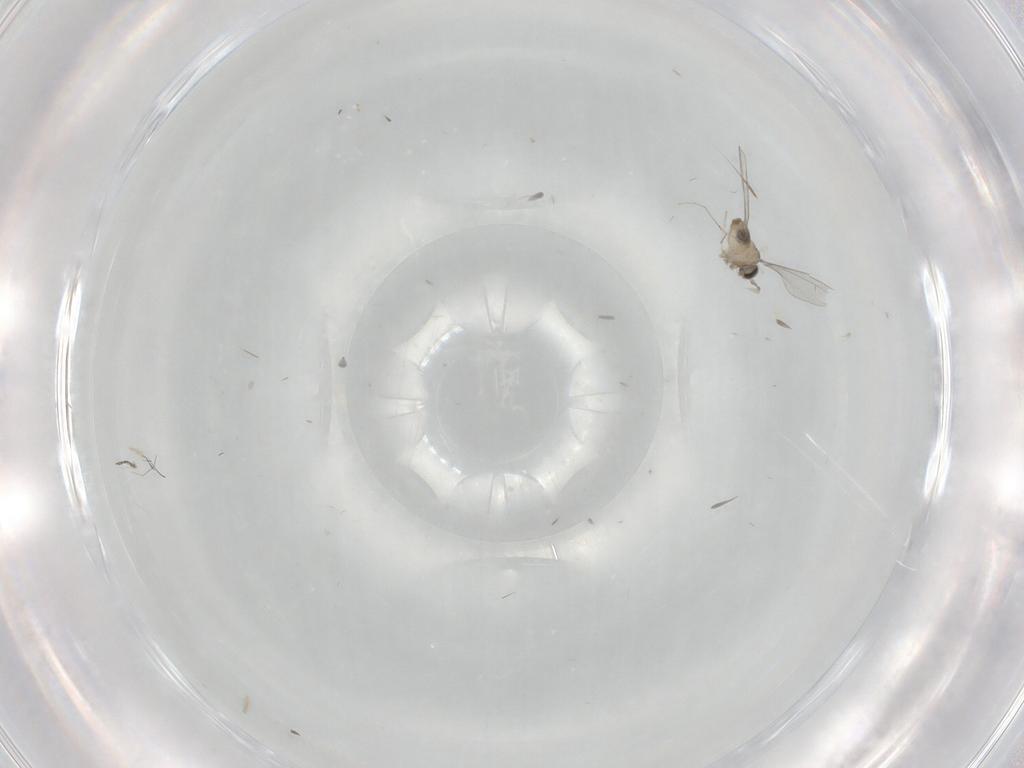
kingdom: Animalia
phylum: Arthropoda
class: Insecta
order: Diptera
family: Cecidomyiidae
